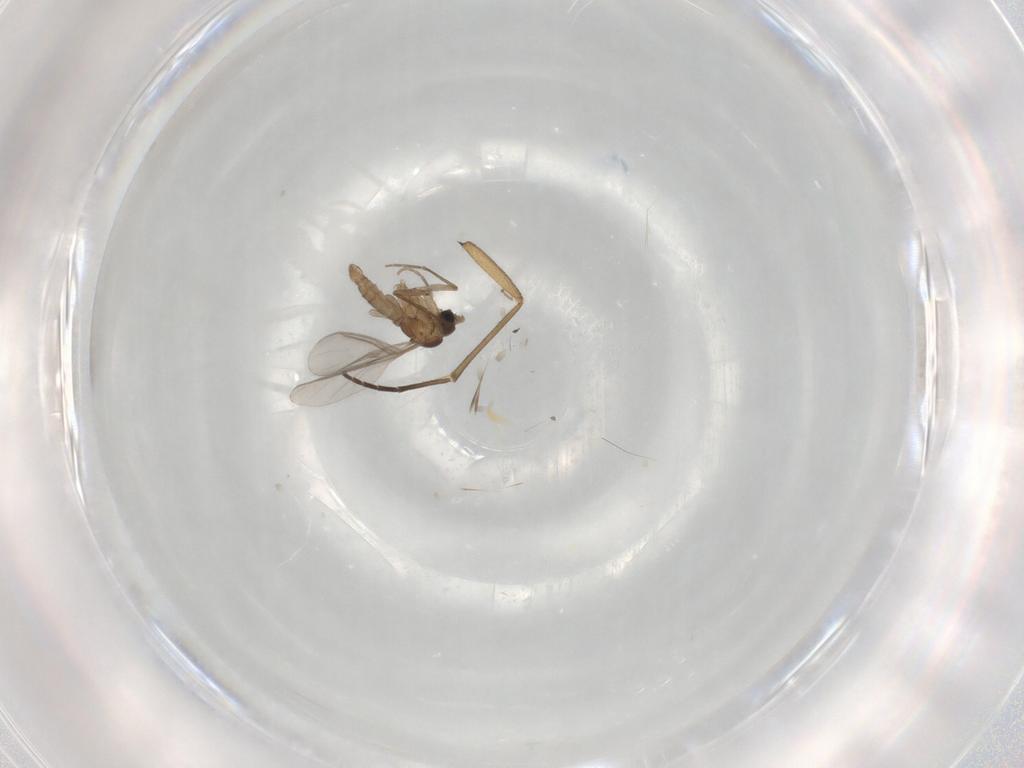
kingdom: Animalia
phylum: Arthropoda
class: Insecta
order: Diptera
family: Sciaridae
